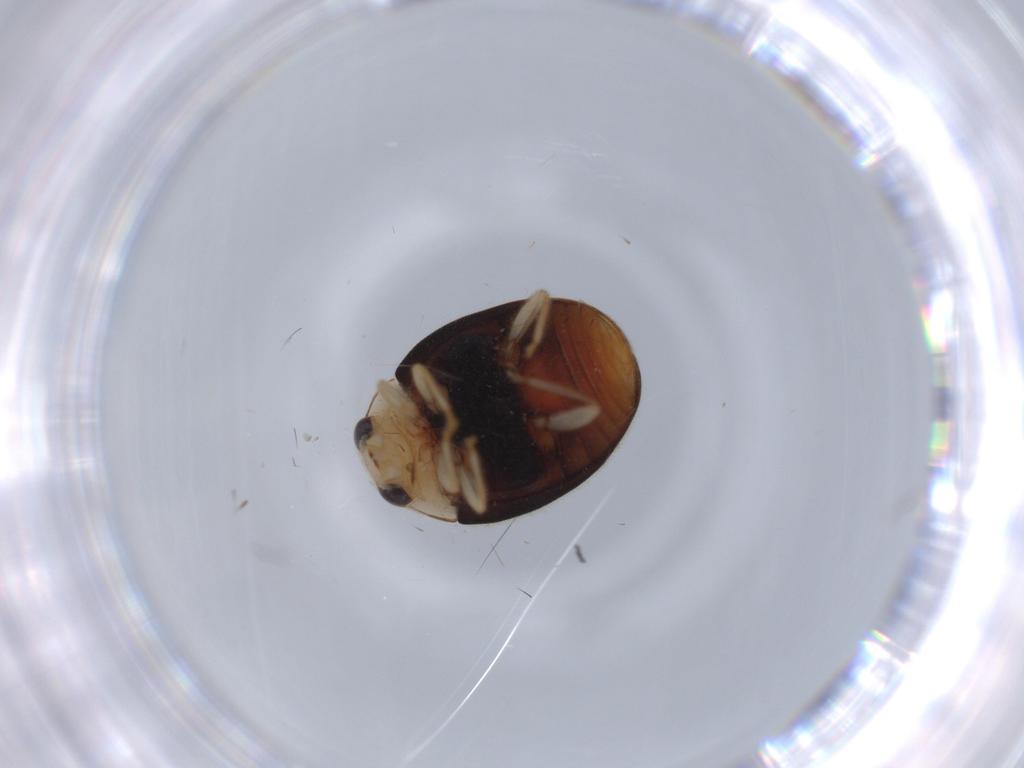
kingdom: Animalia
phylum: Arthropoda
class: Insecta
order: Coleoptera
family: Coccinellidae
